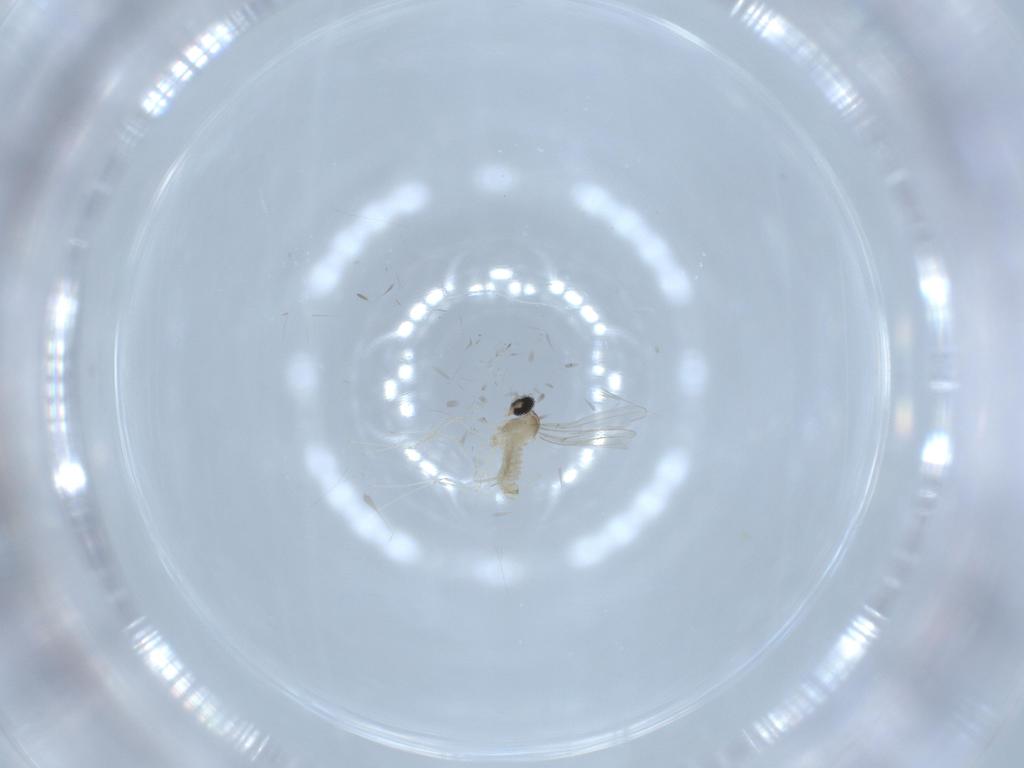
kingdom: Animalia
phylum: Arthropoda
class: Insecta
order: Diptera
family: Cecidomyiidae
